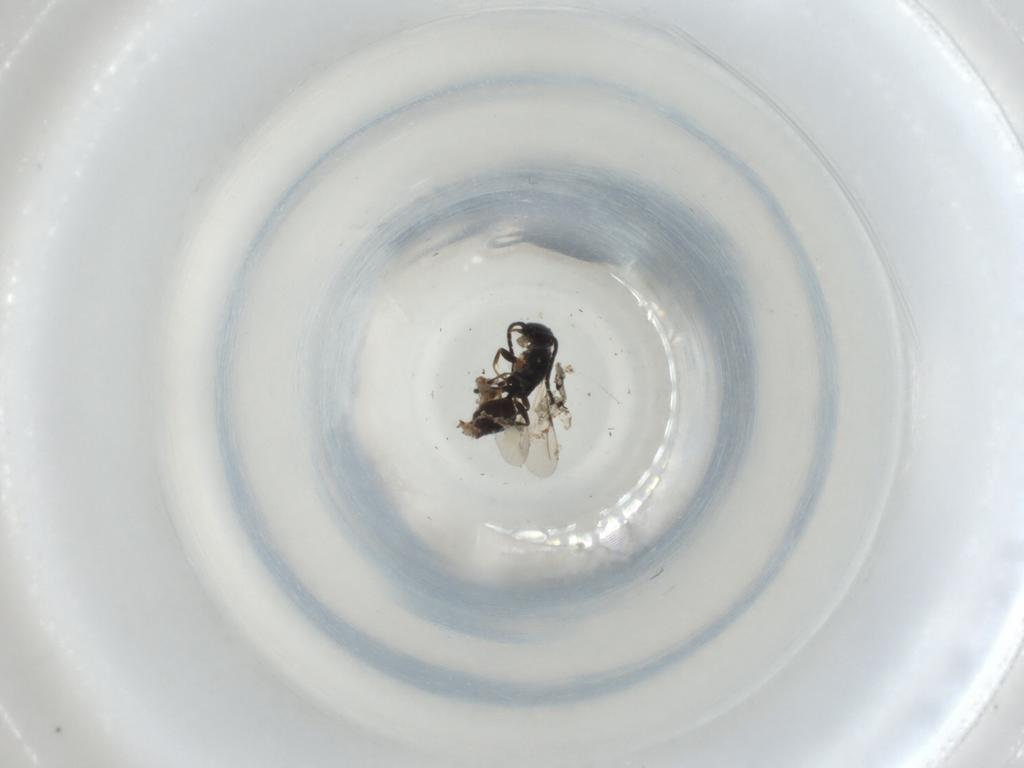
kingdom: Animalia
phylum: Arthropoda
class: Insecta
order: Hymenoptera
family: Bethylidae
